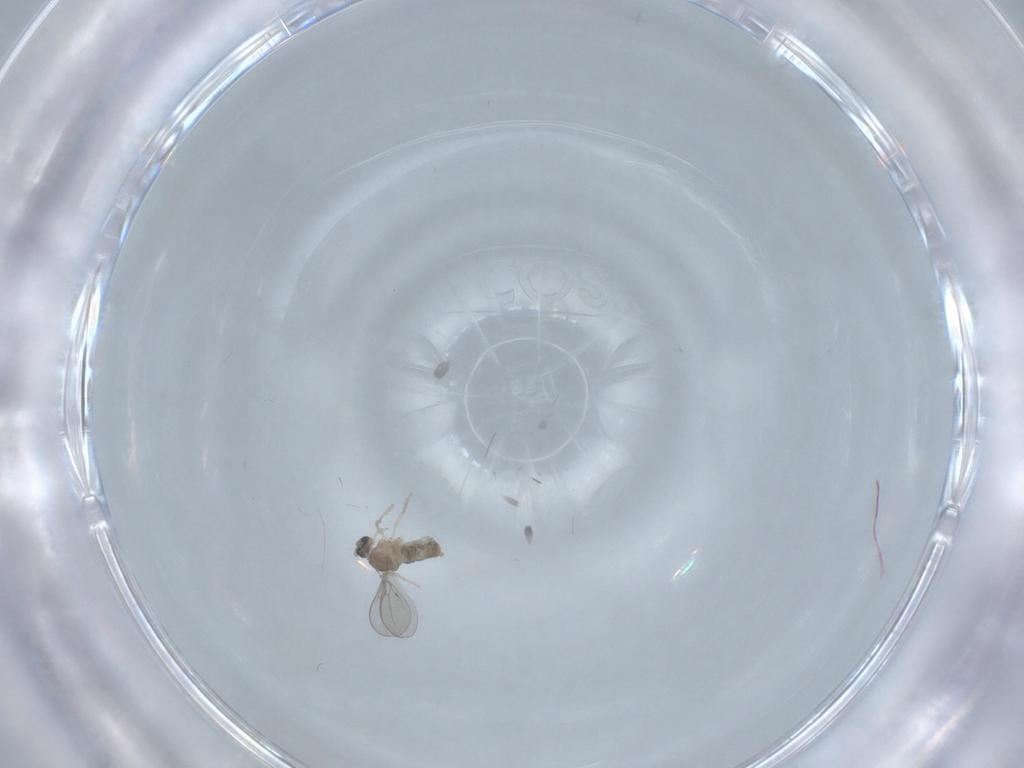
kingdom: Animalia
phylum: Arthropoda
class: Insecta
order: Diptera
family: Cecidomyiidae
